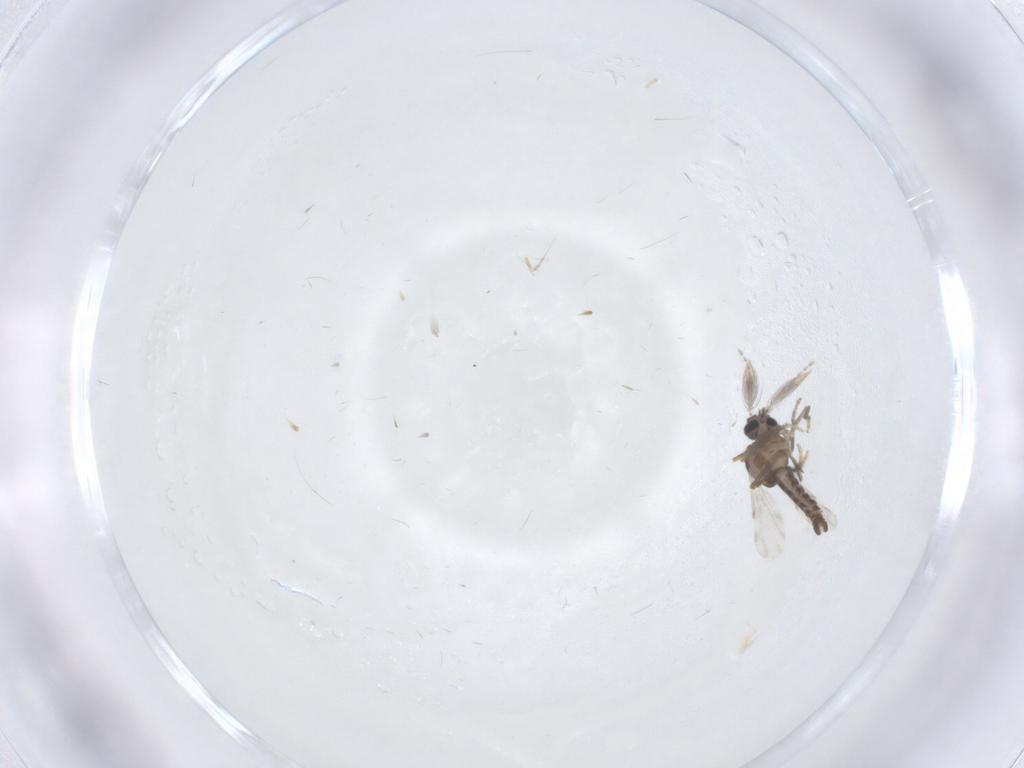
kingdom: Animalia
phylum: Arthropoda
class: Insecta
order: Diptera
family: Ceratopogonidae
